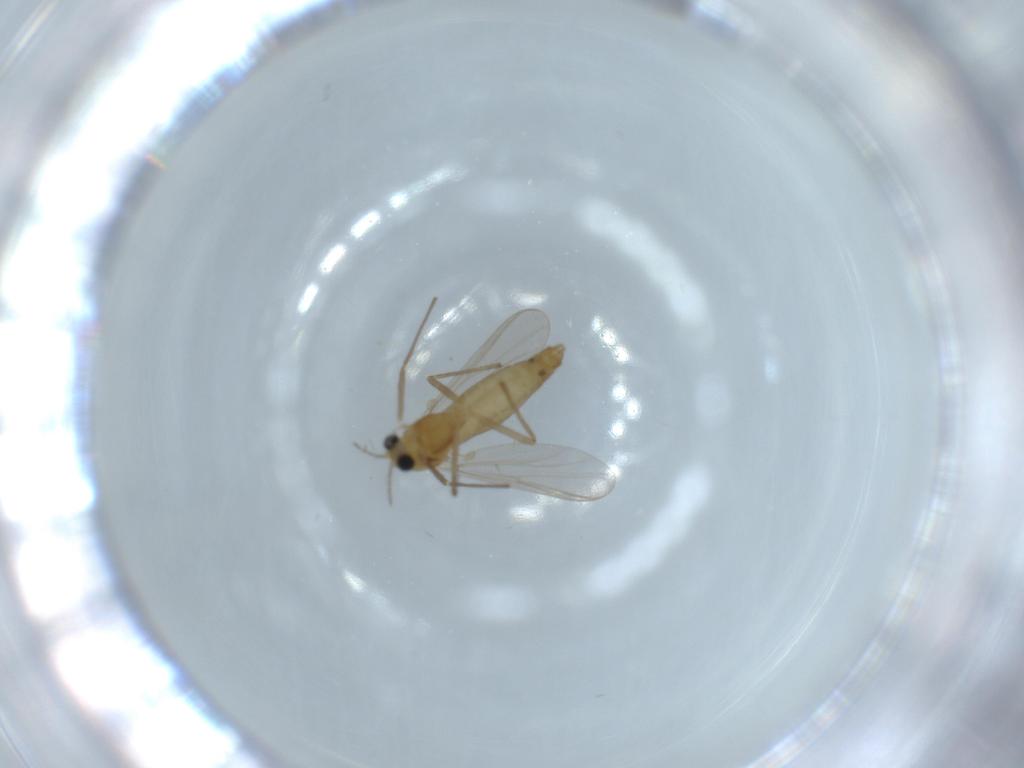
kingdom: Animalia
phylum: Arthropoda
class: Insecta
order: Diptera
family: Chironomidae
